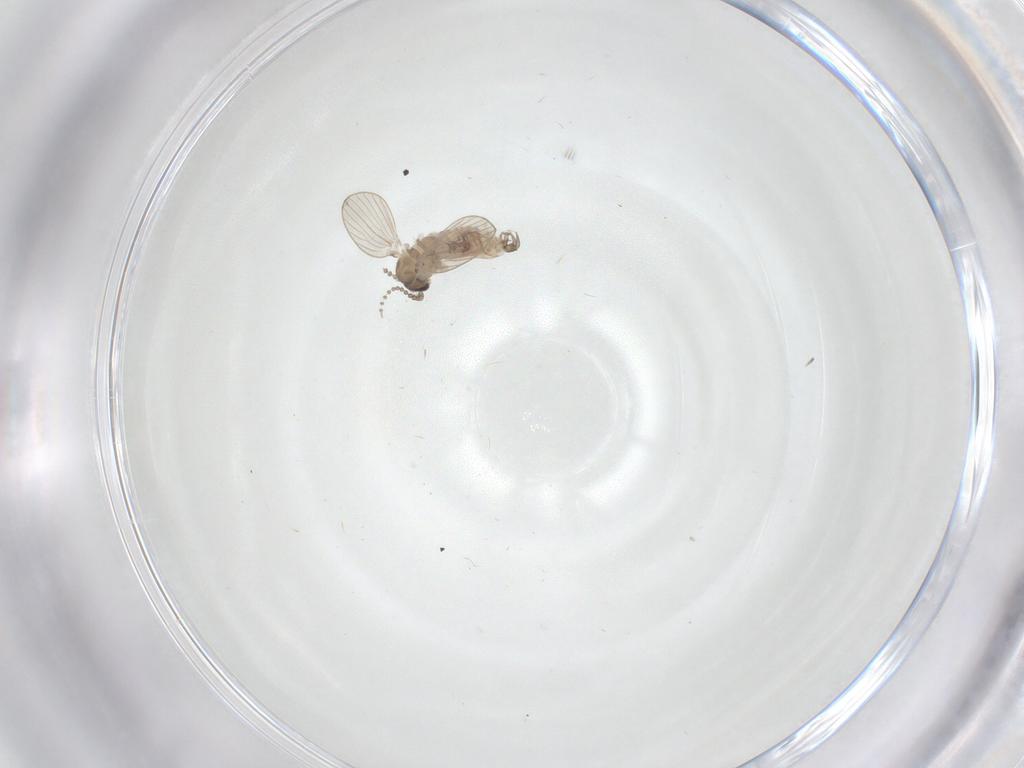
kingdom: Animalia
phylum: Arthropoda
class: Insecta
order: Diptera
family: Psychodidae
